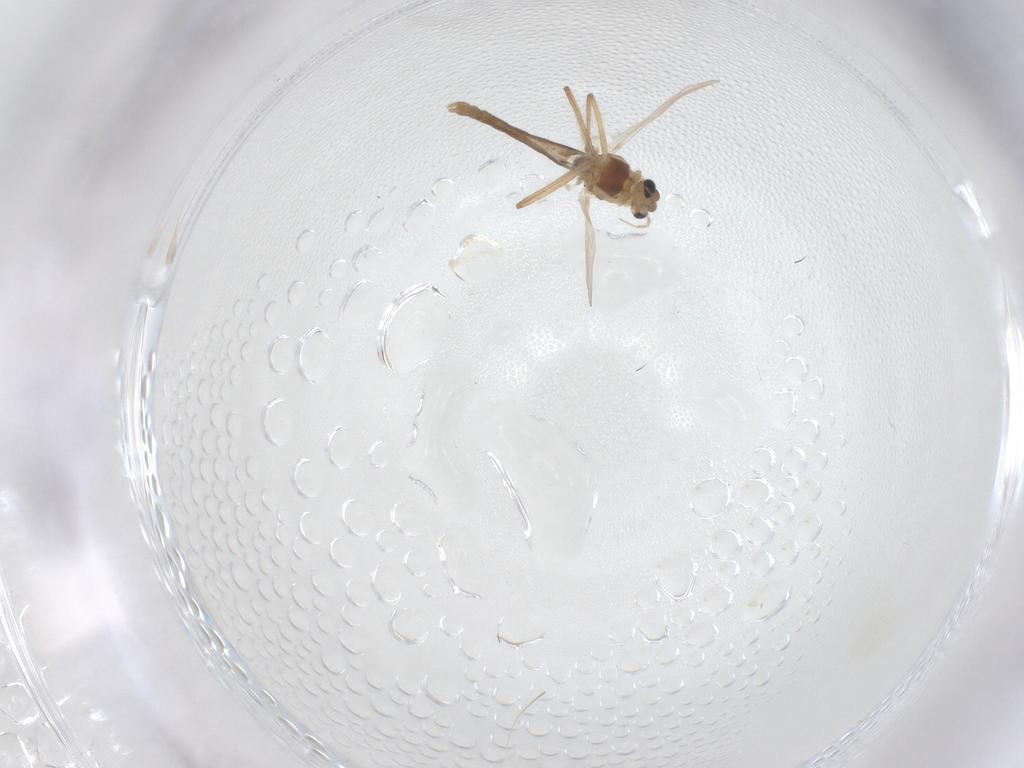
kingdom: Animalia
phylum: Arthropoda
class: Insecta
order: Diptera
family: Chironomidae
